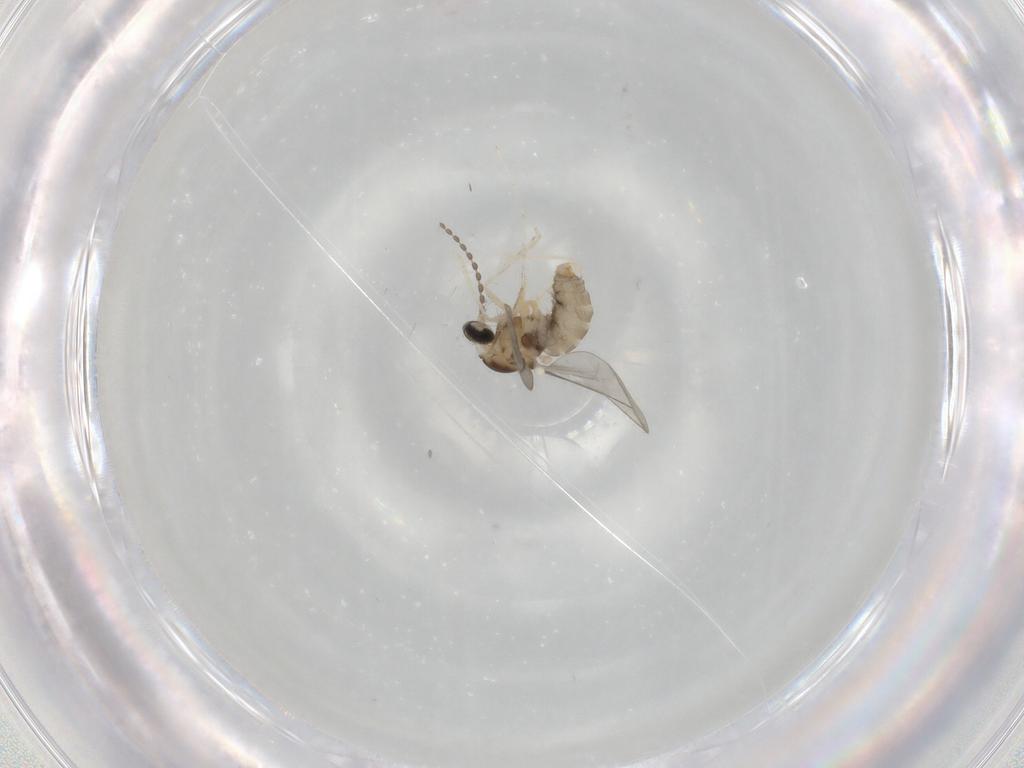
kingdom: Animalia
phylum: Arthropoda
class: Insecta
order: Diptera
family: Cecidomyiidae
